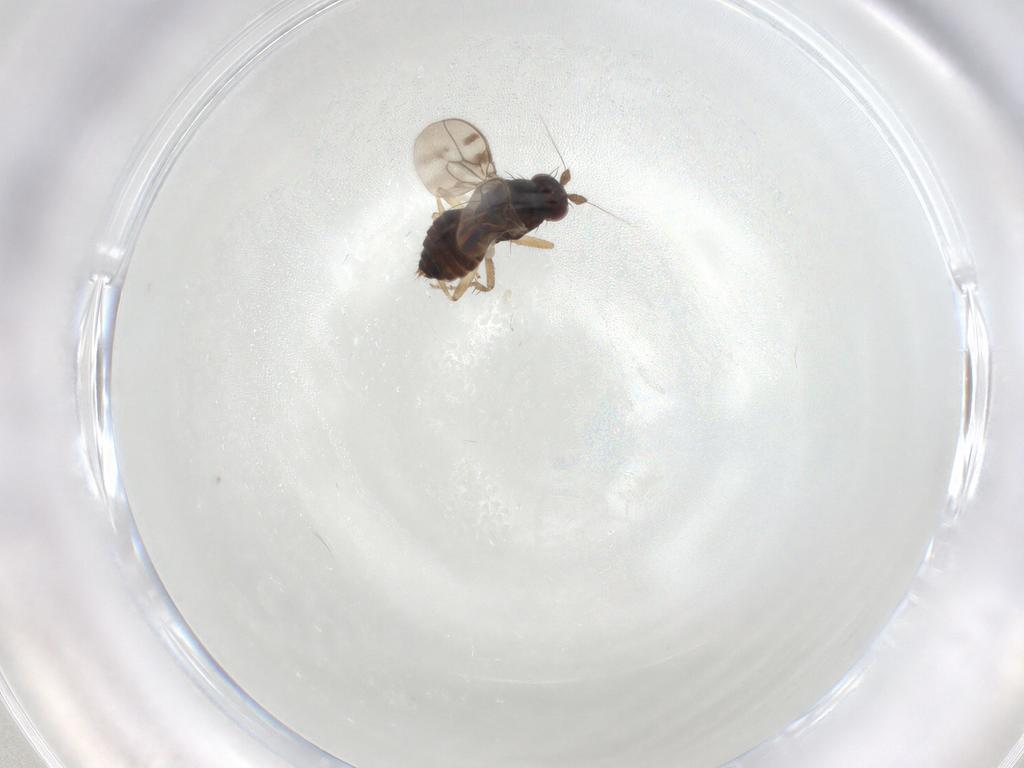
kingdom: Animalia
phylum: Arthropoda
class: Insecta
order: Diptera
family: Sphaeroceridae
